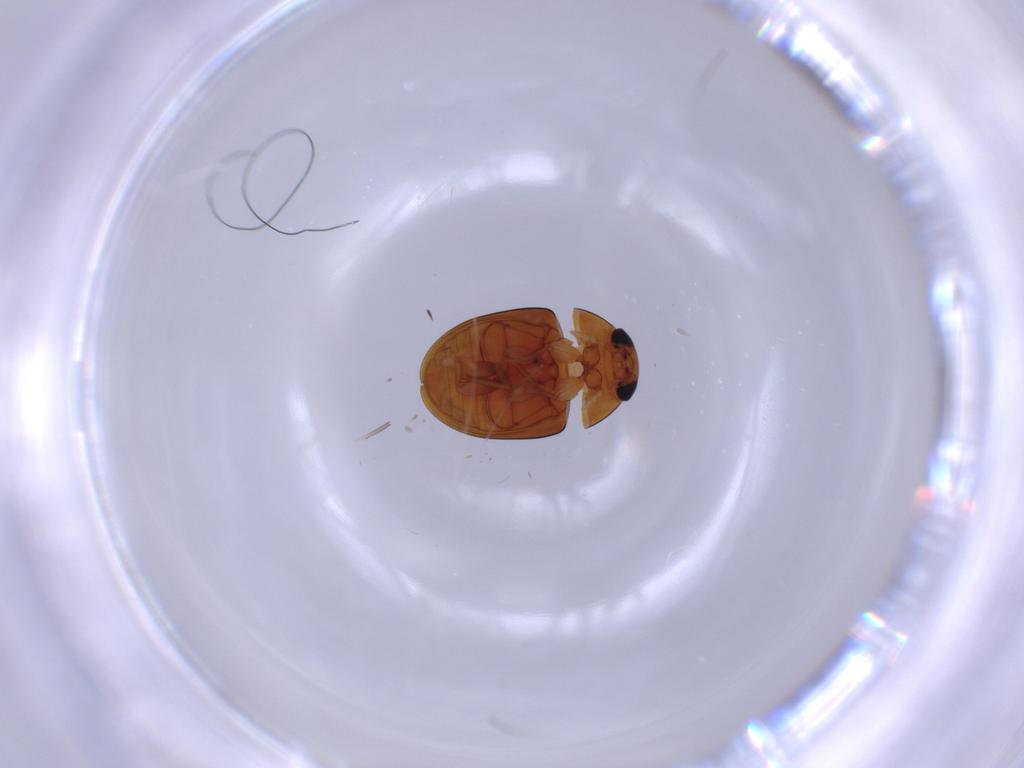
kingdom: Animalia
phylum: Arthropoda
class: Insecta
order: Coleoptera
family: Phalacridae
